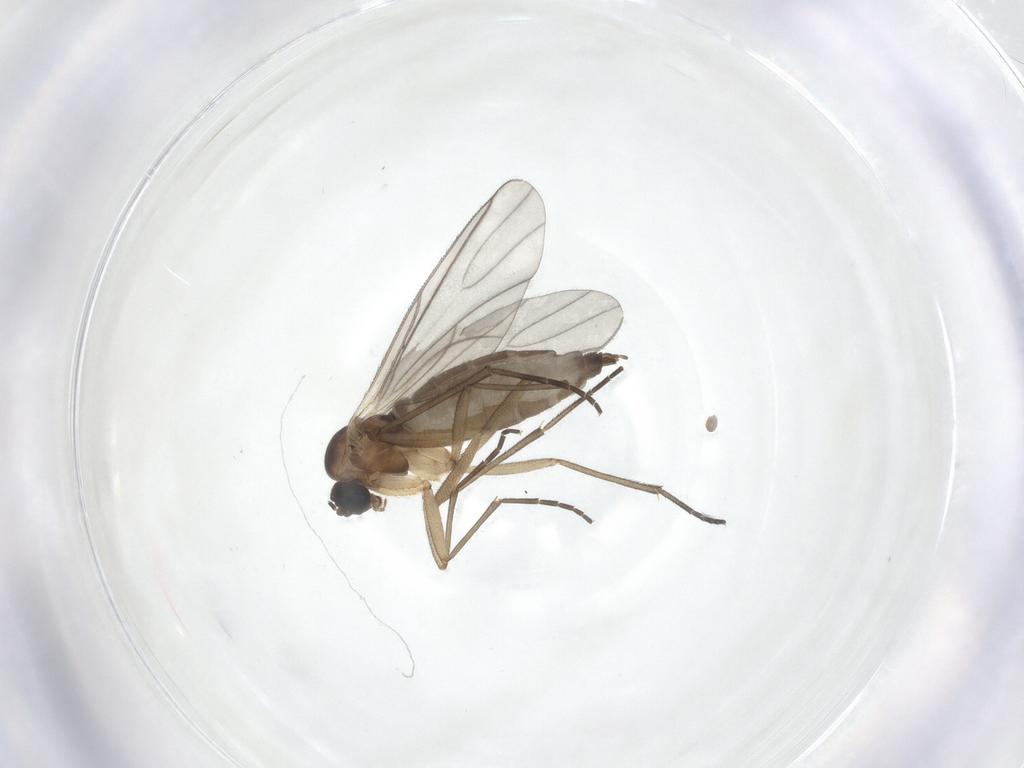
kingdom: Animalia
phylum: Arthropoda
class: Insecta
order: Diptera
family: Sciaridae
